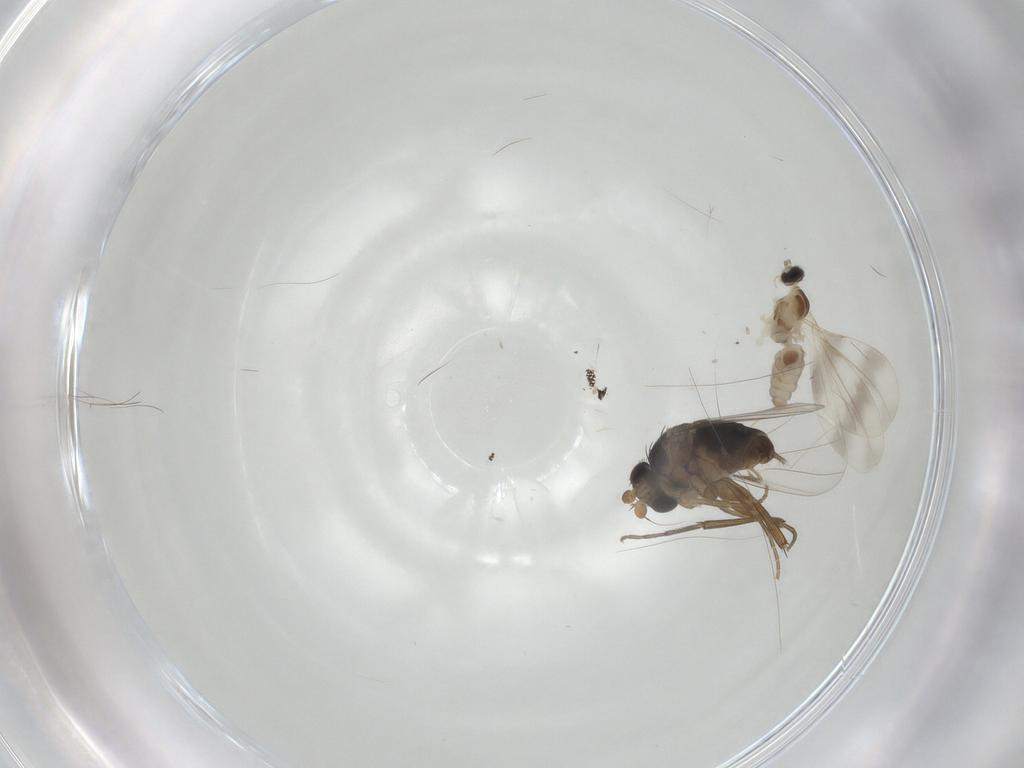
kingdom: Animalia
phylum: Arthropoda
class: Insecta
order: Diptera
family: Cecidomyiidae
